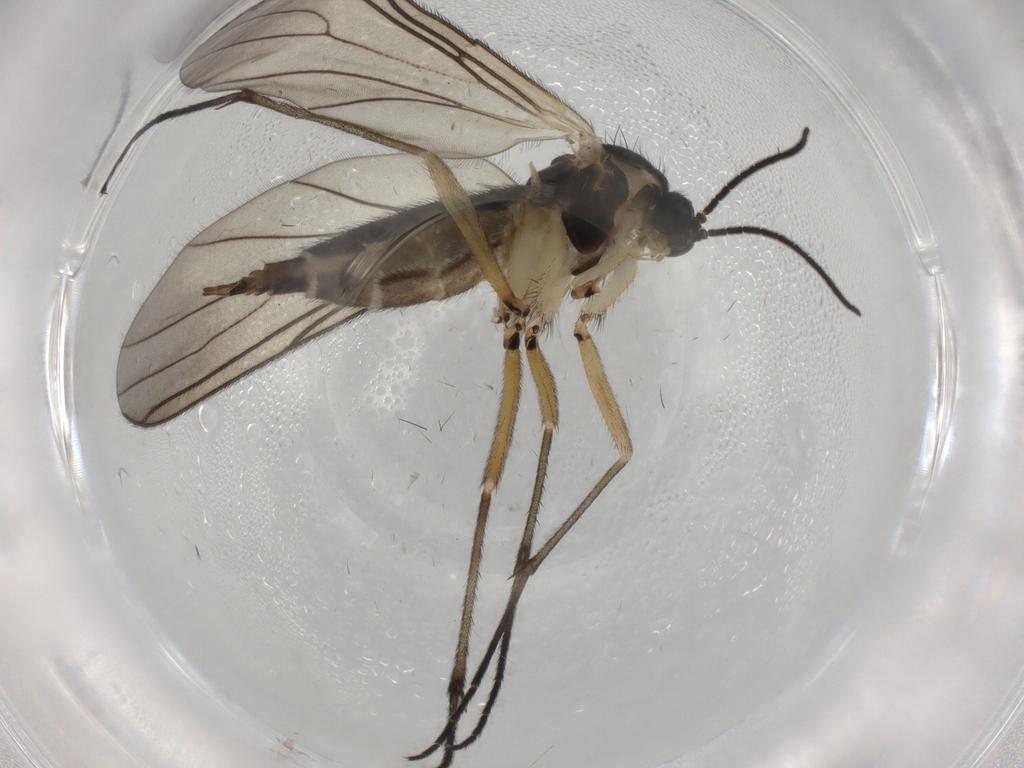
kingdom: Animalia
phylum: Arthropoda
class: Insecta
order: Diptera
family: Sciaridae
